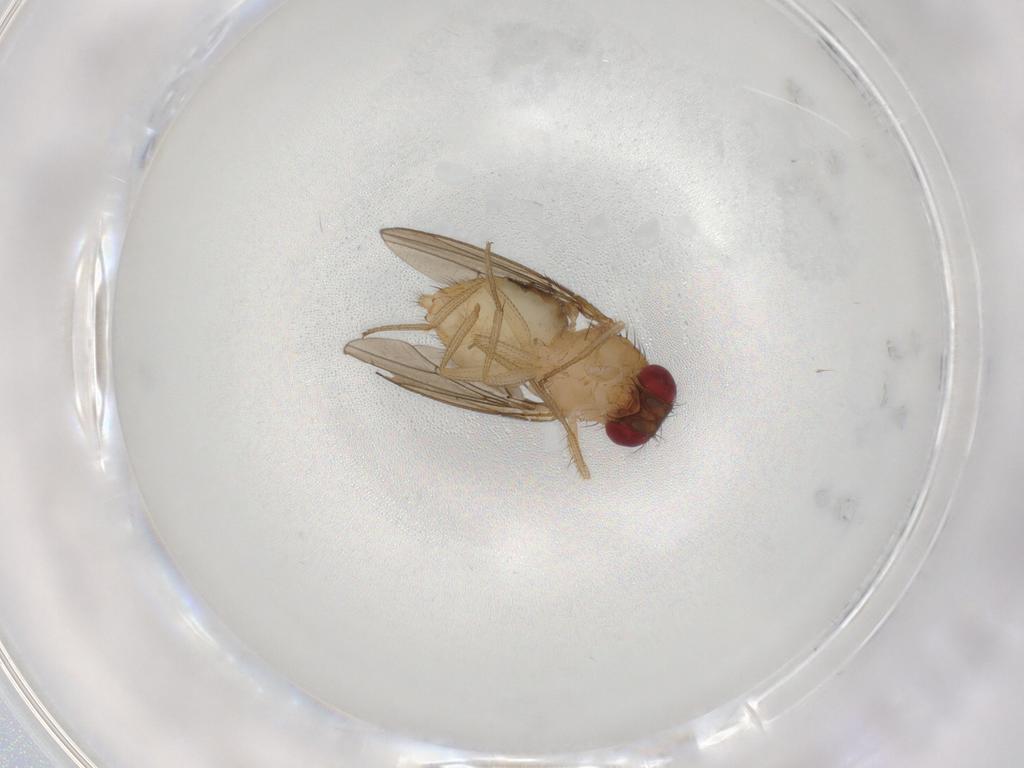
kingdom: Animalia
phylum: Arthropoda
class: Insecta
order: Diptera
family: Drosophilidae
